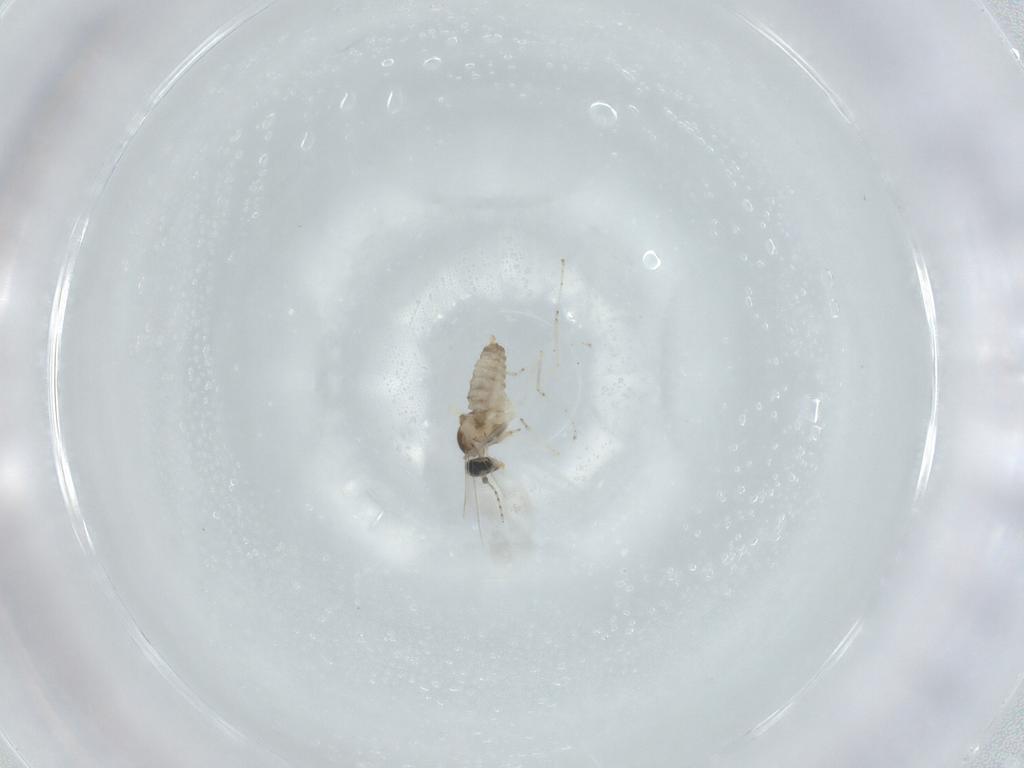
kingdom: Animalia
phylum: Arthropoda
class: Insecta
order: Diptera
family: Cecidomyiidae
